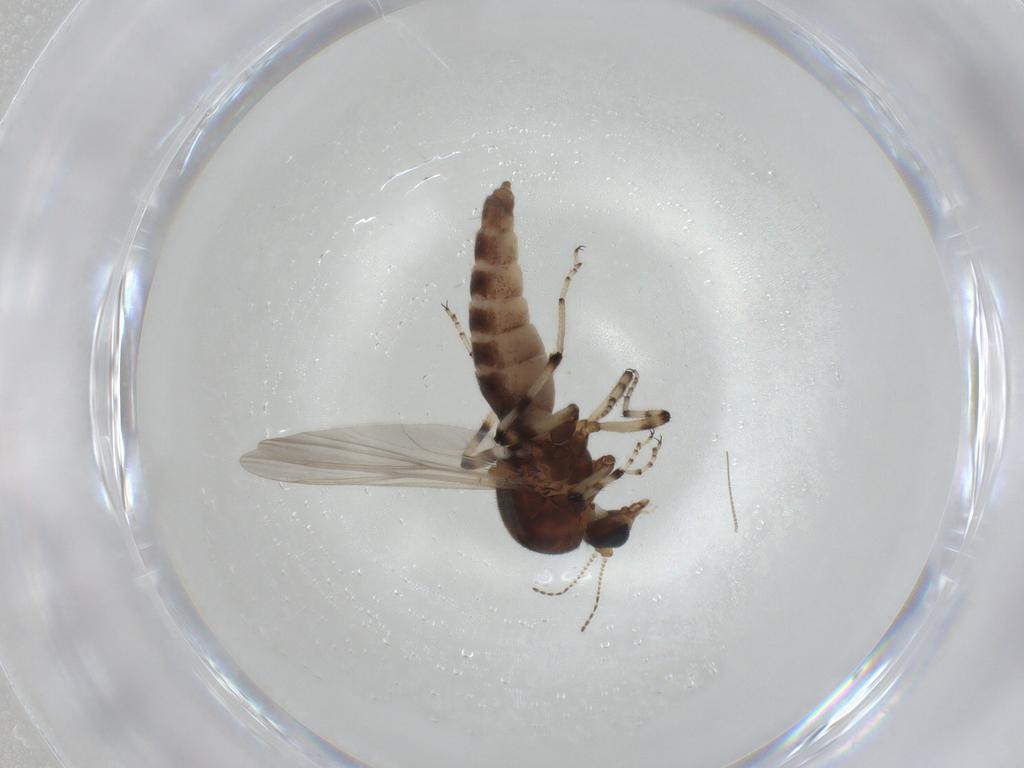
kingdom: Animalia
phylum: Arthropoda
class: Insecta
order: Diptera
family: Ceratopogonidae
